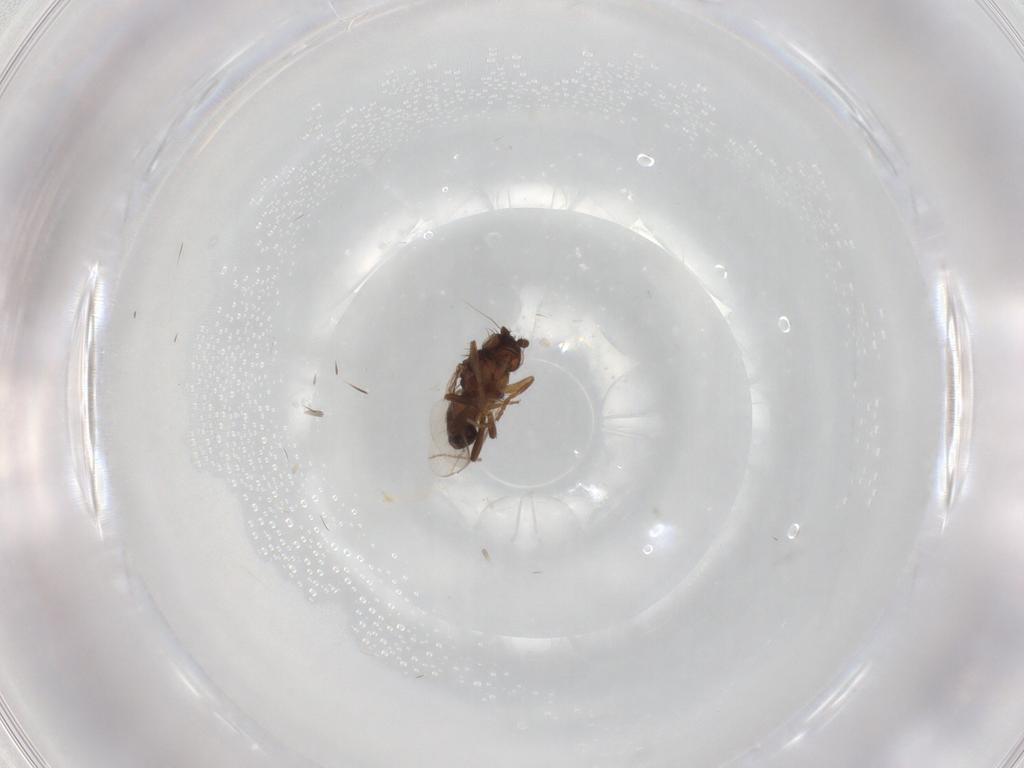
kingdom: Animalia
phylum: Arthropoda
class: Insecta
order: Diptera
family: Sphaeroceridae
